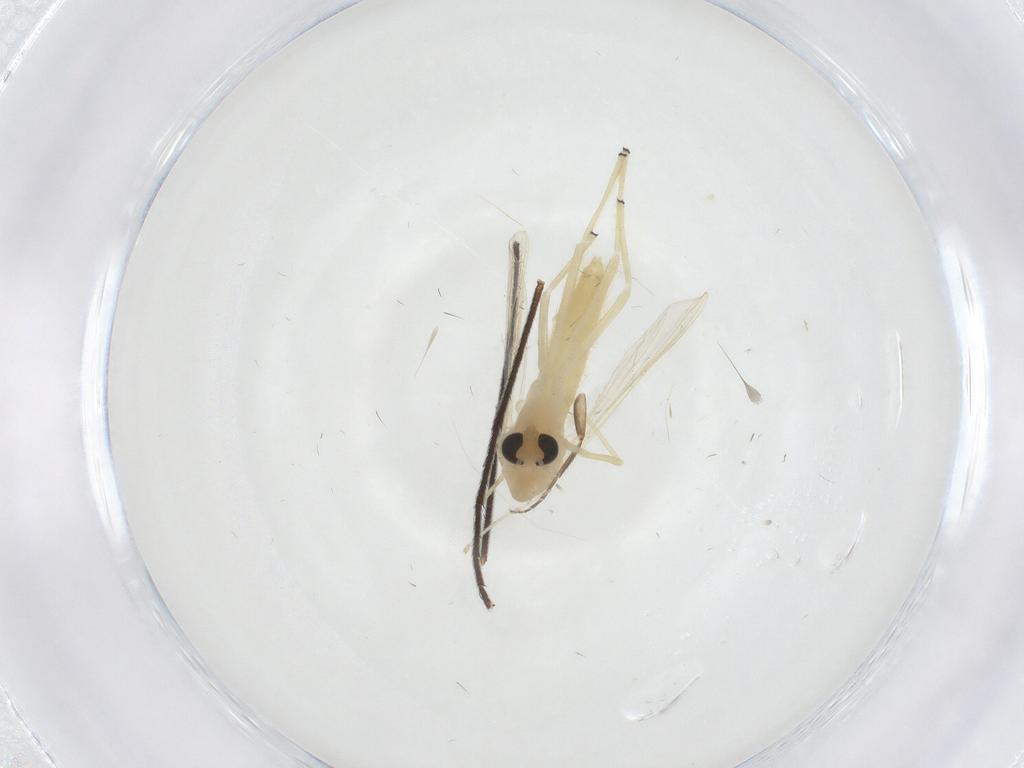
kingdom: Animalia
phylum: Arthropoda
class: Insecta
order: Diptera
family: Chironomidae
